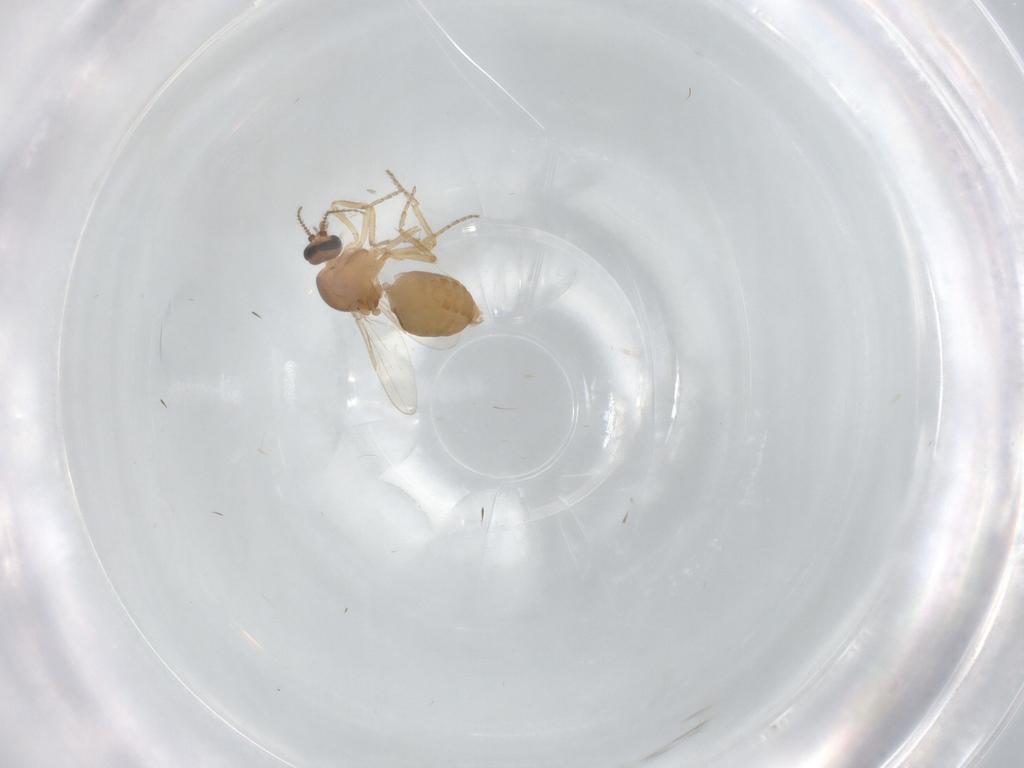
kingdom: Animalia
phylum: Arthropoda
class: Insecta
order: Diptera
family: Ceratopogonidae
